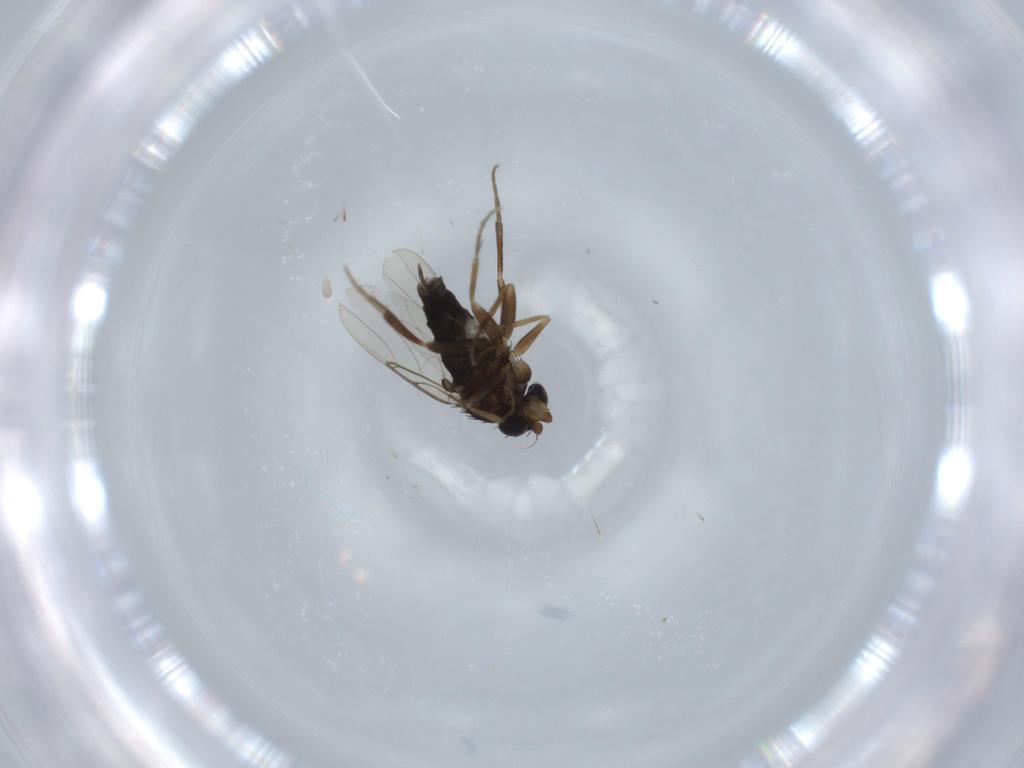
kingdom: Animalia
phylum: Arthropoda
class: Insecta
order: Diptera
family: Phoridae
